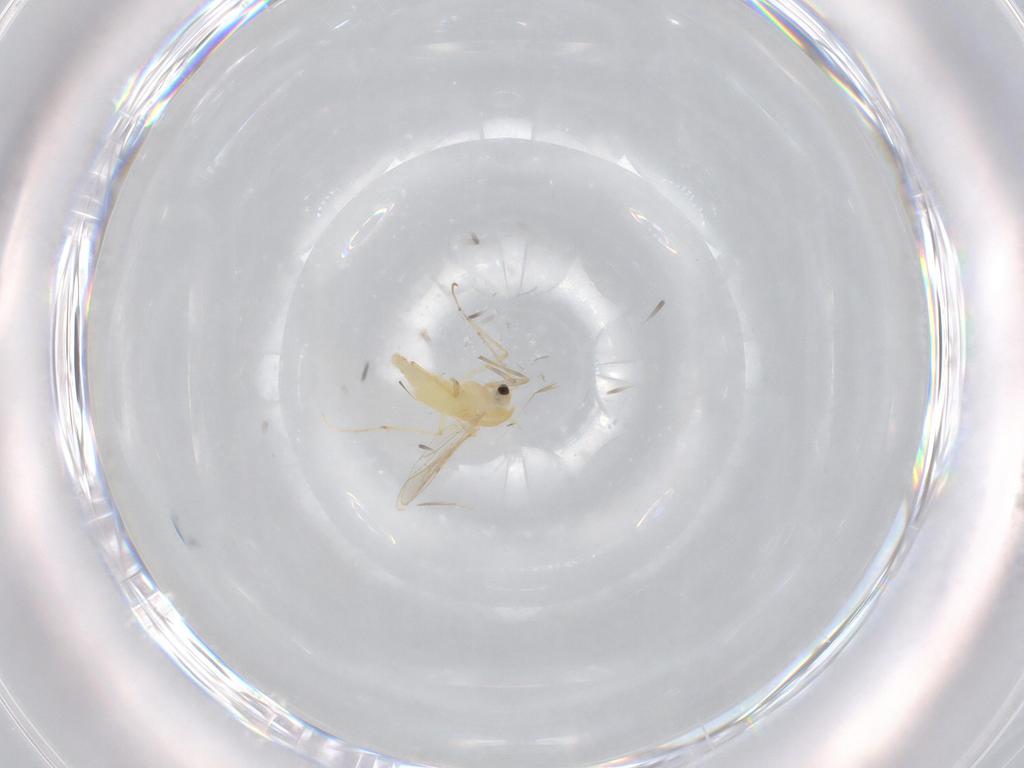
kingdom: Animalia
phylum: Arthropoda
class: Insecta
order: Diptera
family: Chironomidae
